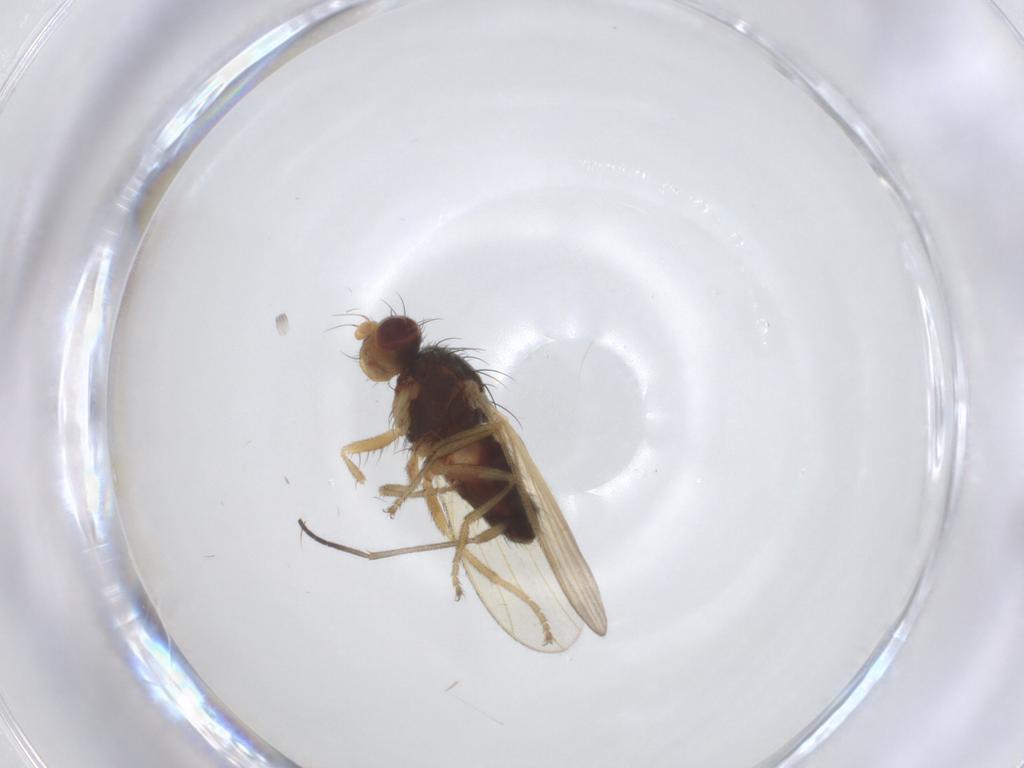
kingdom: Animalia
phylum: Arthropoda
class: Insecta
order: Diptera
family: Heleomyzidae
